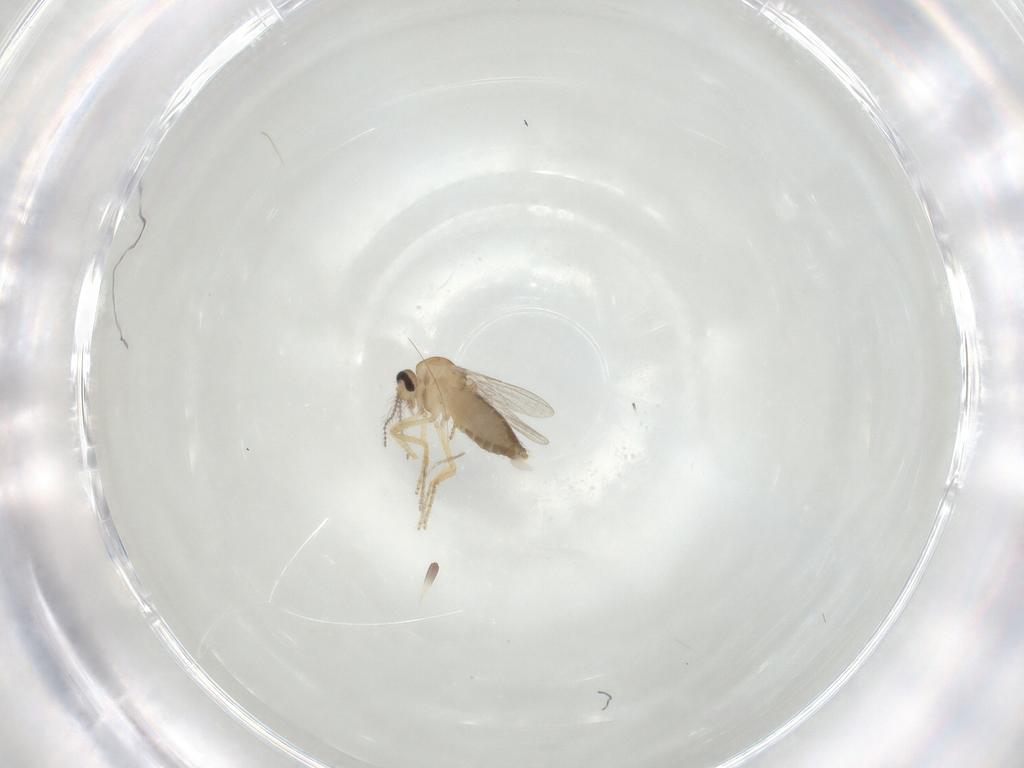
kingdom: Animalia
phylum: Arthropoda
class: Insecta
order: Diptera
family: Ceratopogonidae
